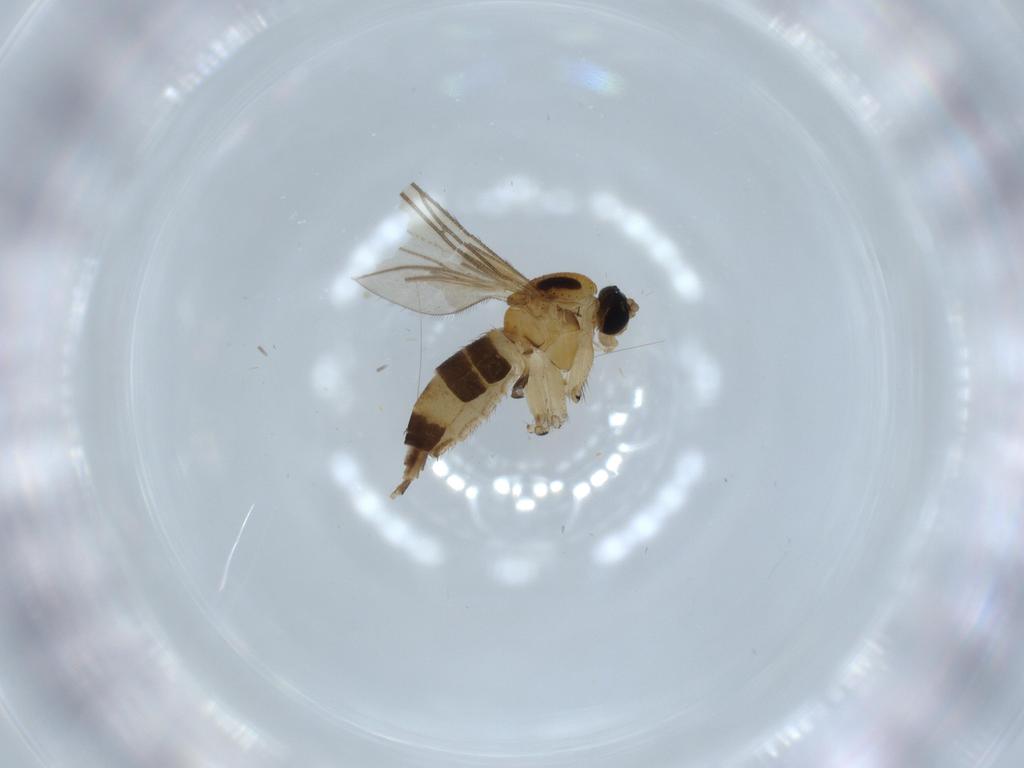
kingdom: Animalia
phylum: Arthropoda
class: Insecta
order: Diptera
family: Sciaridae
